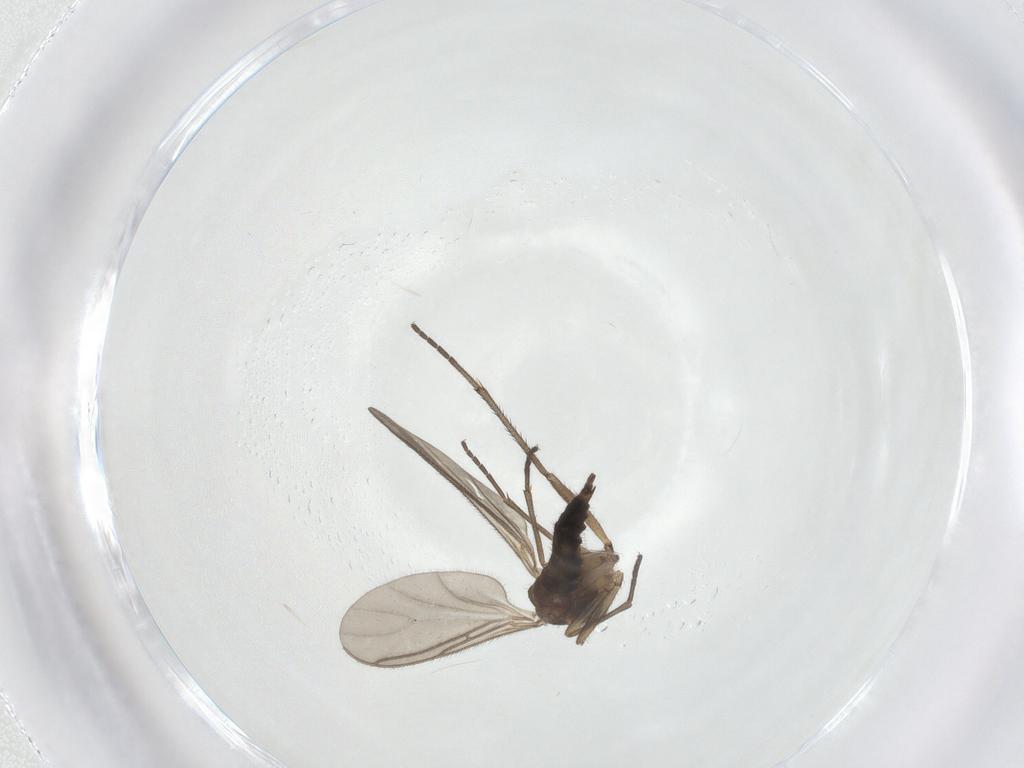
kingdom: Animalia
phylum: Arthropoda
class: Insecta
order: Diptera
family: Sciaridae
